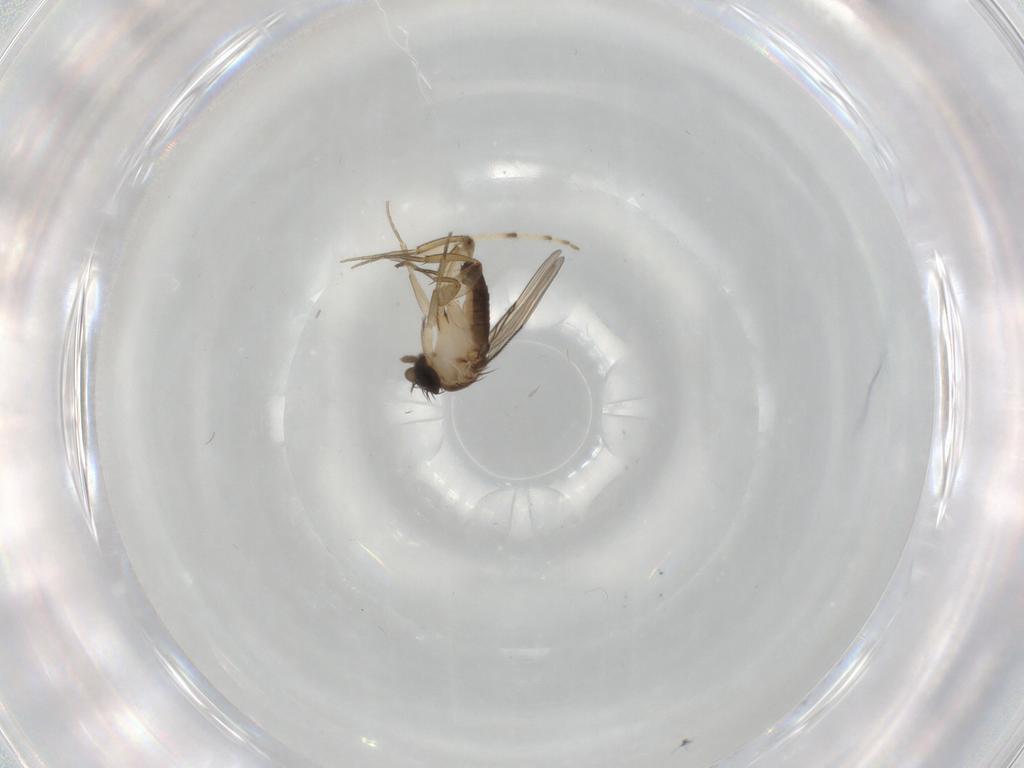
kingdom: Animalia
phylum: Arthropoda
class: Insecta
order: Diptera
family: Phoridae
